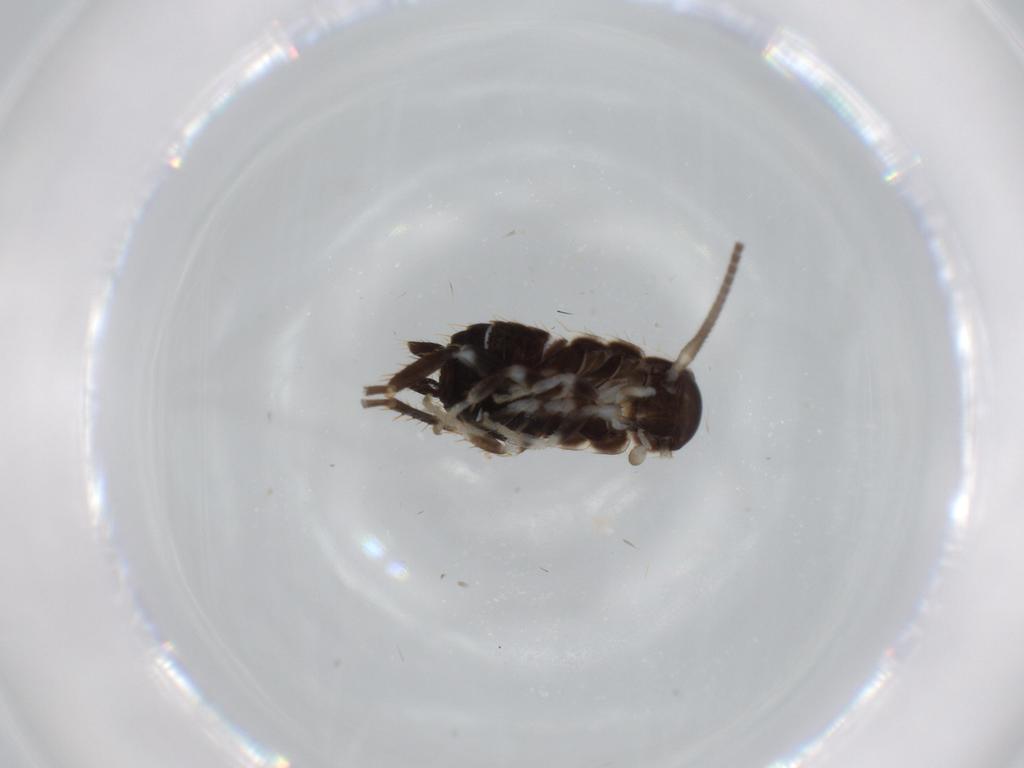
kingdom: Animalia
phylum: Arthropoda
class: Insecta
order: Blattodea
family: Ectobiidae
